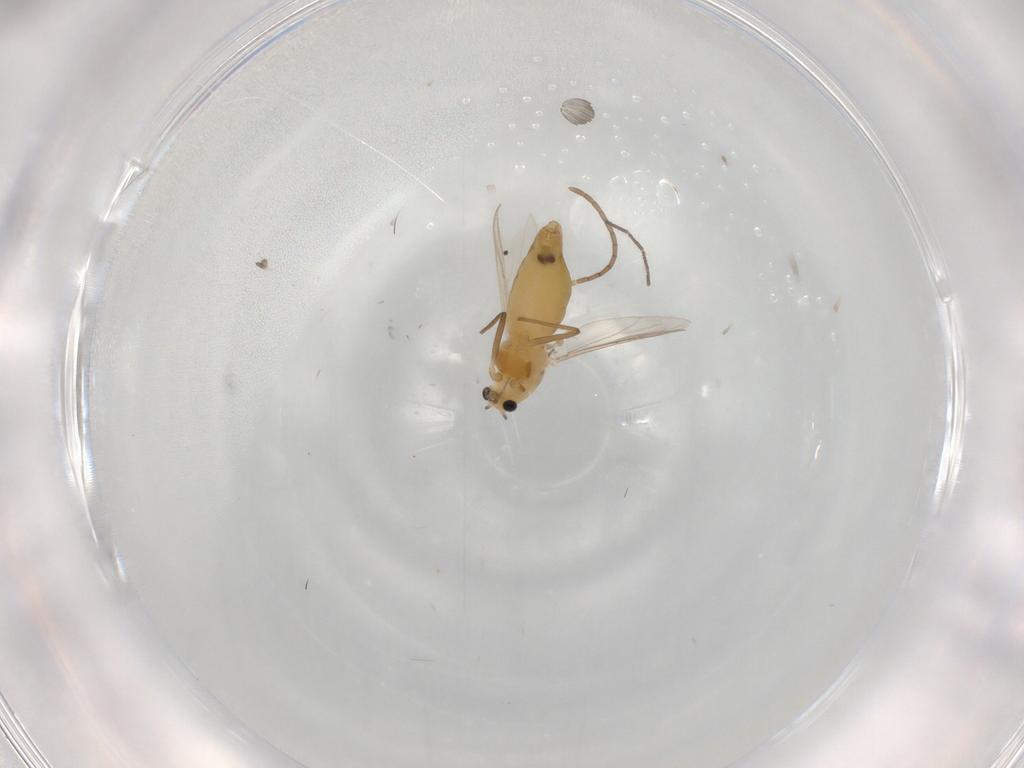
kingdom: Animalia
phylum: Arthropoda
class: Insecta
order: Diptera
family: Chironomidae
